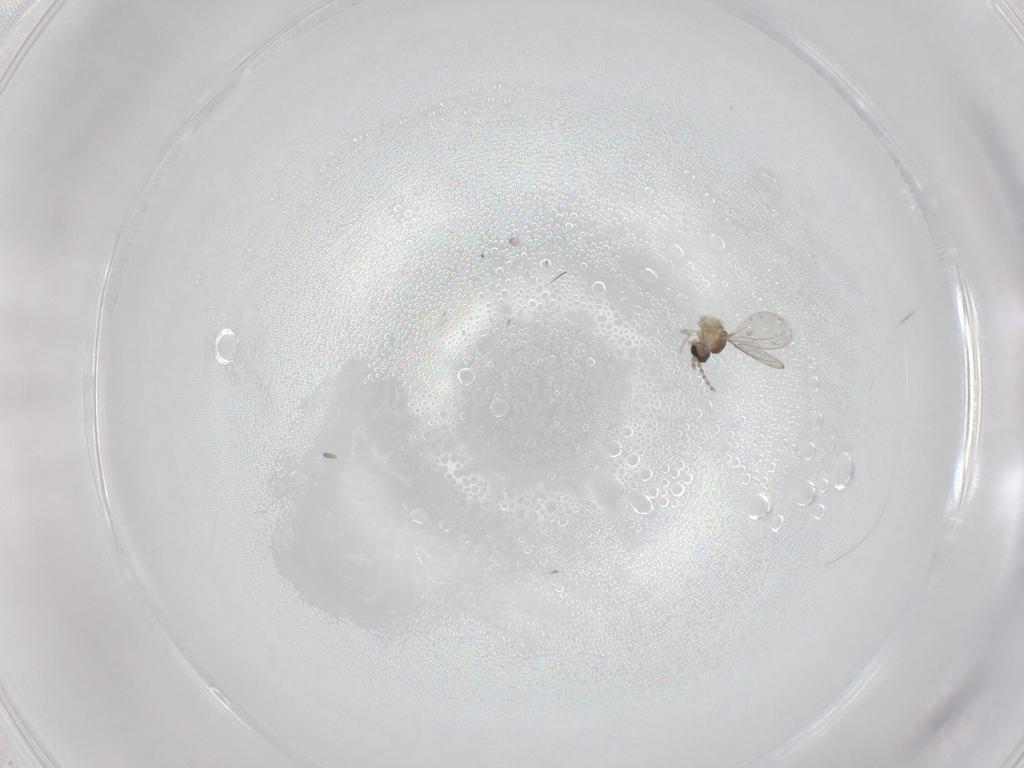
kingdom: Animalia
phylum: Arthropoda
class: Insecta
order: Diptera
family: Cecidomyiidae
